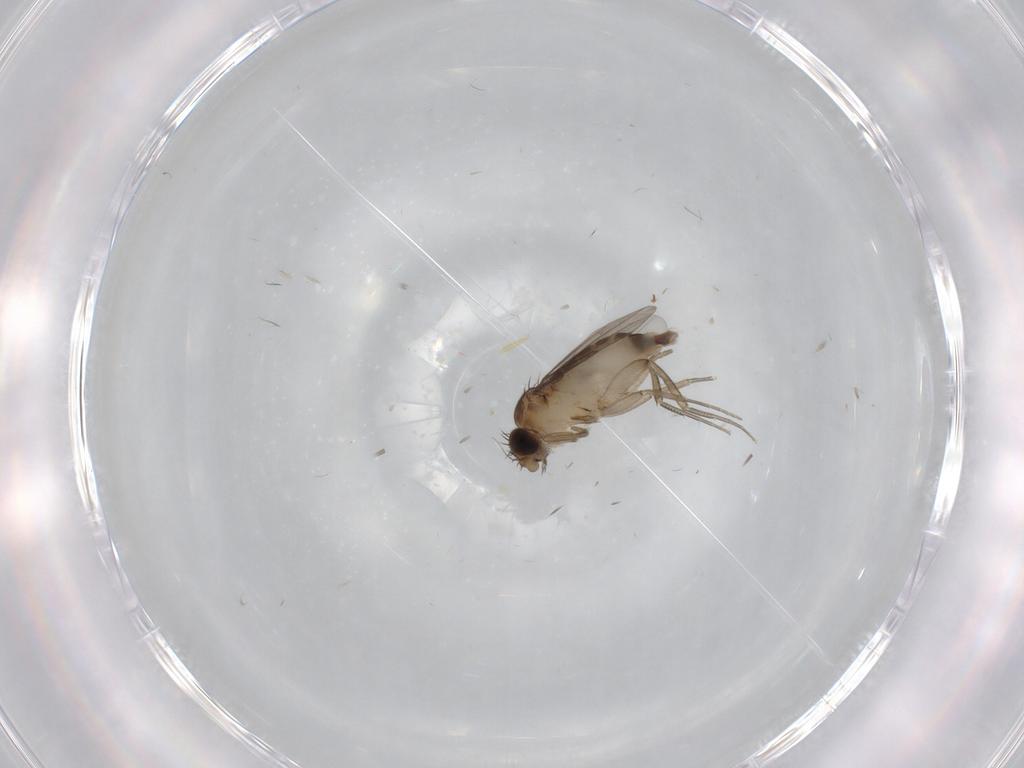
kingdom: Animalia
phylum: Arthropoda
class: Insecta
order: Diptera
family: Phoridae
